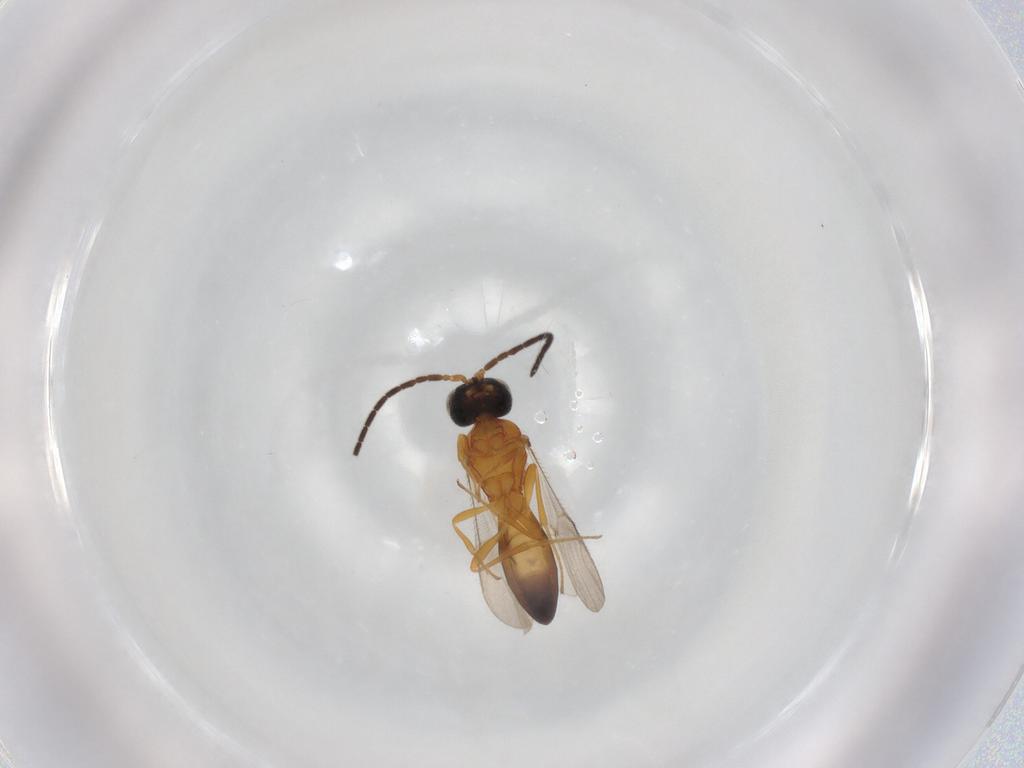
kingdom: Animalia
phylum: Arthropoda
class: Insecta
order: Hymenoptera
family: Scelionidae
